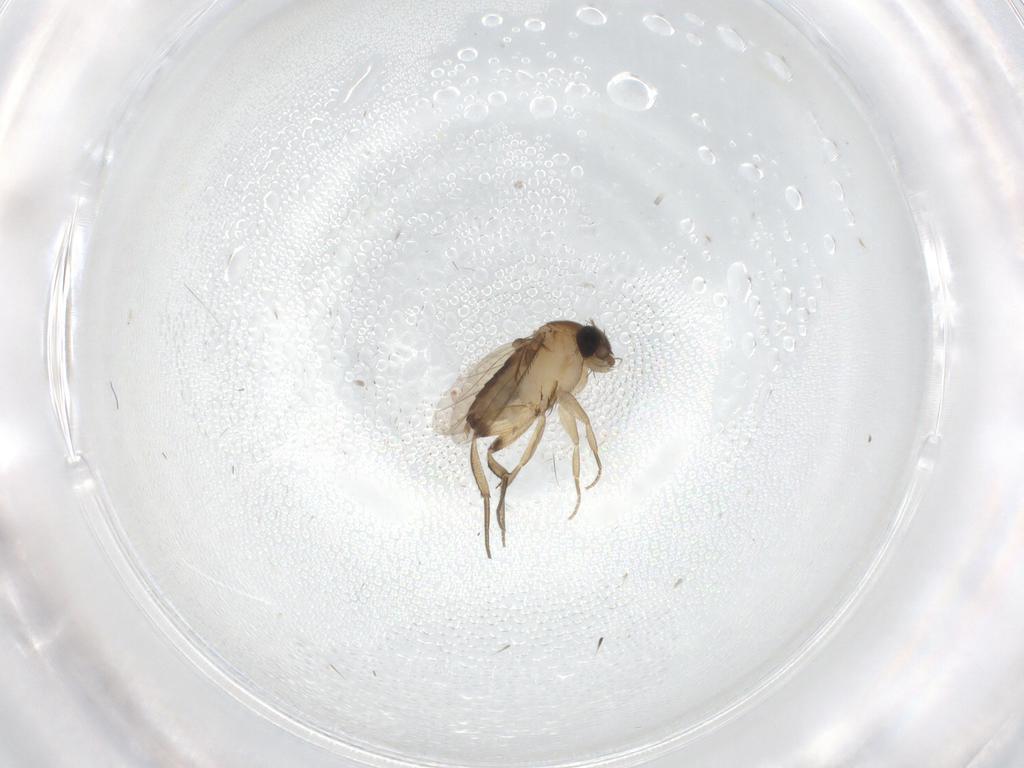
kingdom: Animalia
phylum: Arthropoda
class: Insecta
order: Diptera
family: Phoridae
